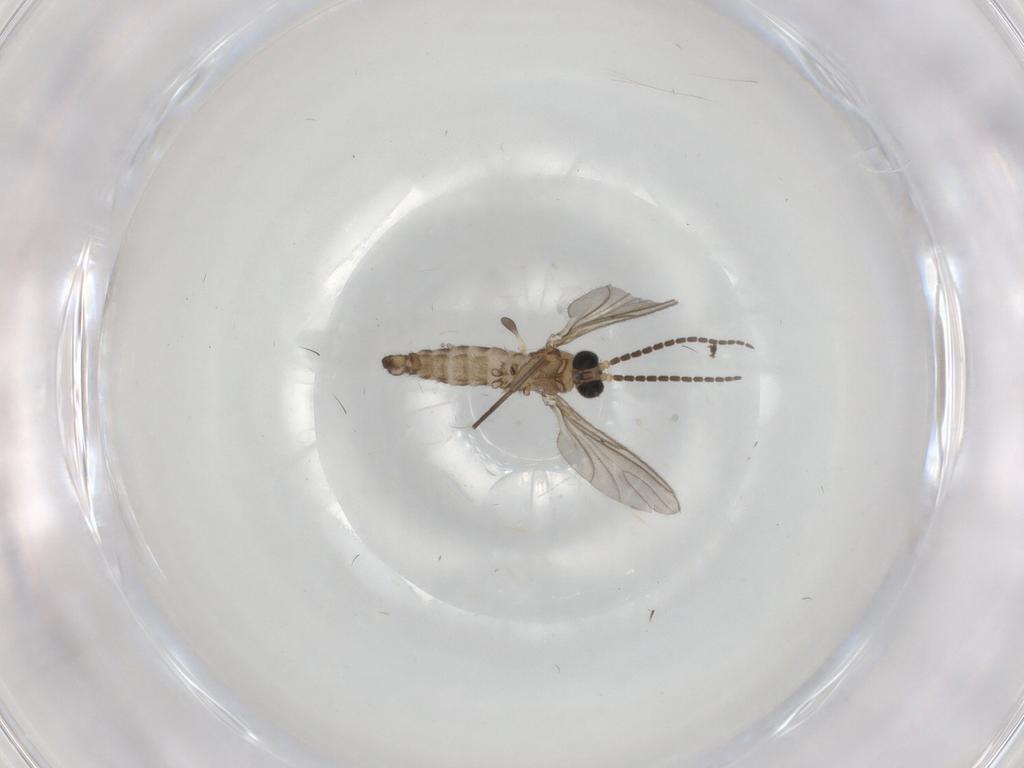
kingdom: Animalia
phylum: Arthropoda
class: Insecta
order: Diptera
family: Sciaridae
